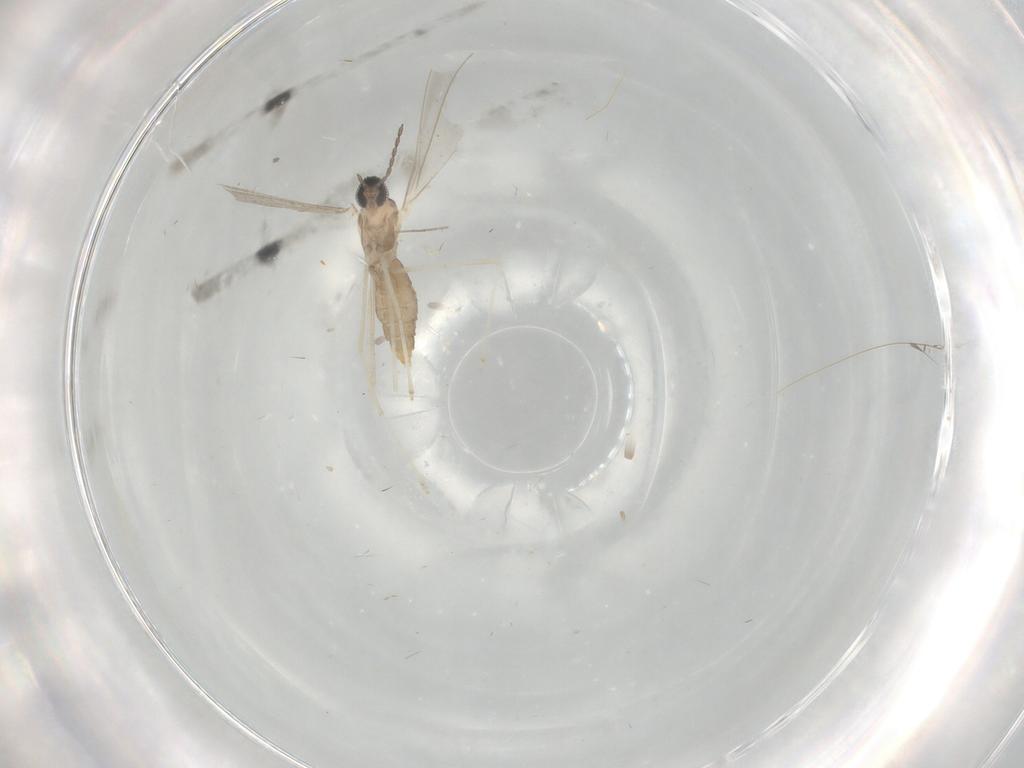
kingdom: Animalia
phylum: Arthropoda
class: Insecta
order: Diptera
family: Cecidomyiidae
